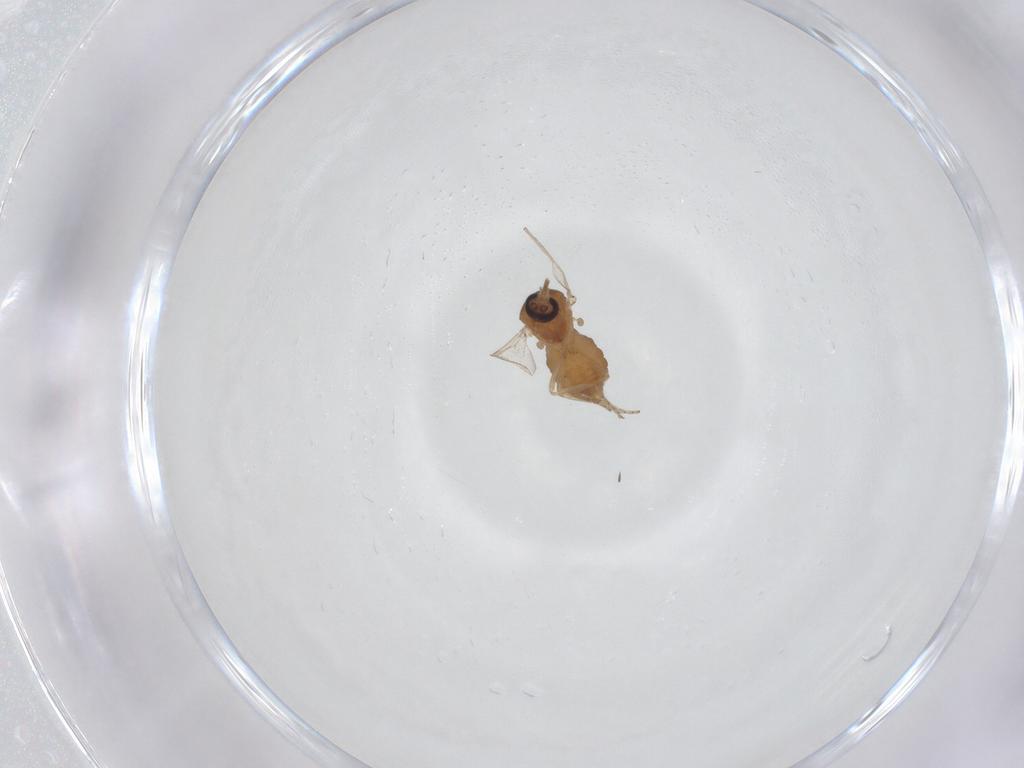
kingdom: Animalia
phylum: Arthropoda
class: Insecta
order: Diptera
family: Ceratopogonidae
